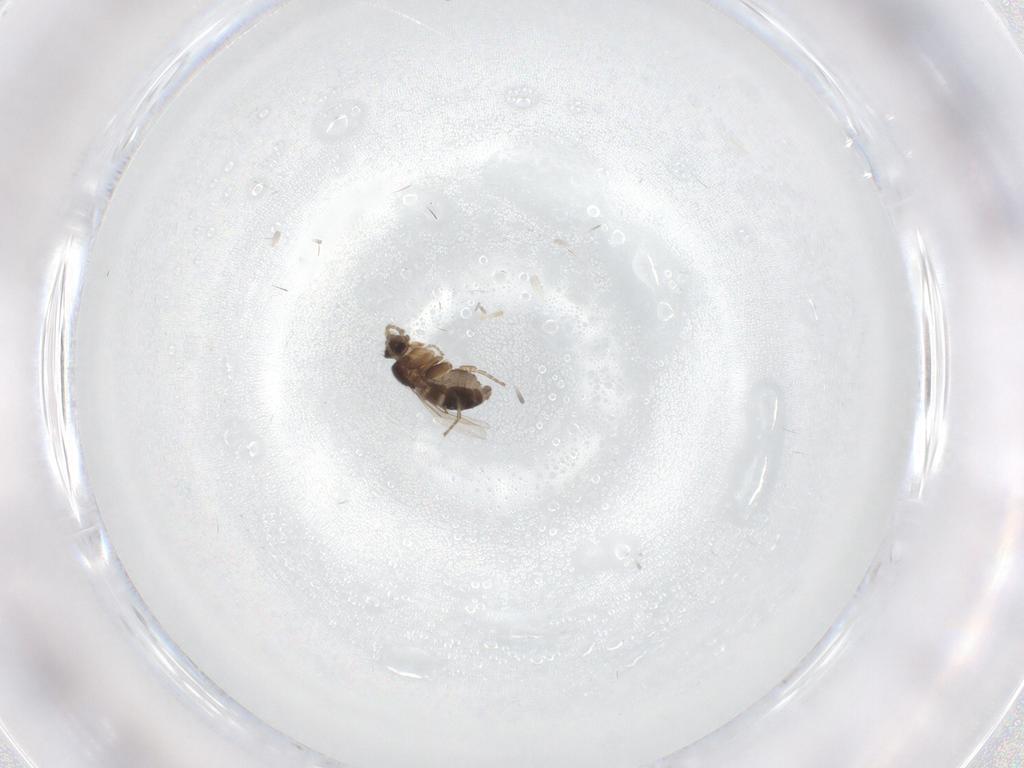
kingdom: Animalia
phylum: Arthropoda
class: Insecta
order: Diptera
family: Phoridae
